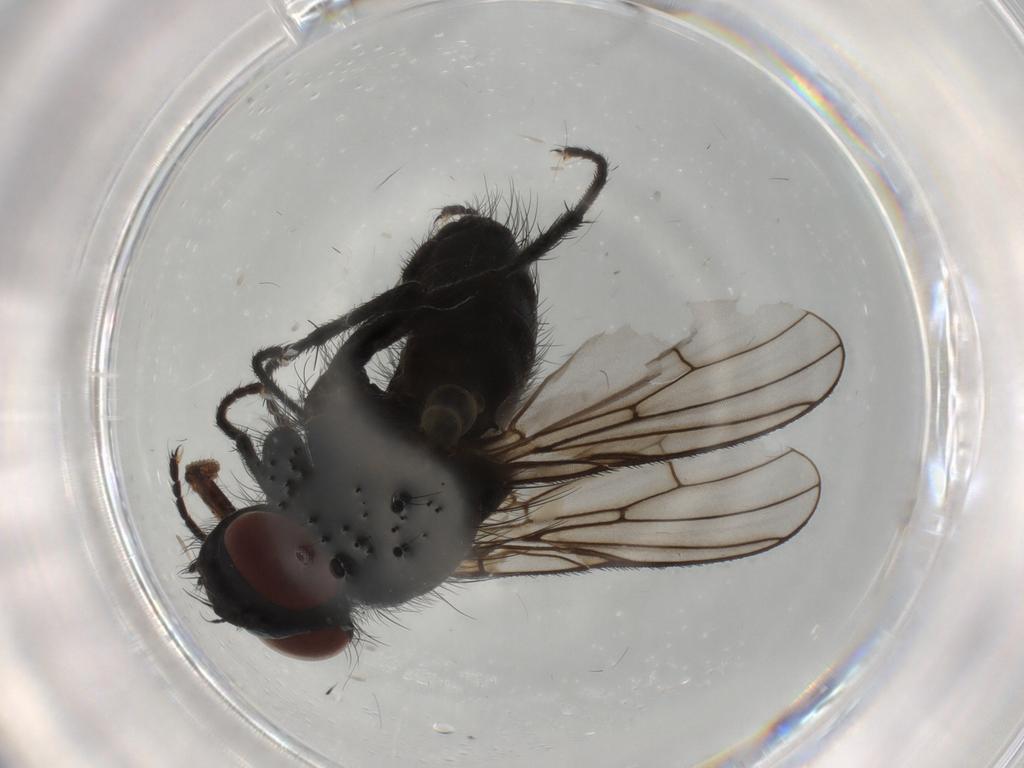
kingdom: Animalia
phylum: Arthropoda
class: Insecta
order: Diptera
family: Muscidae
